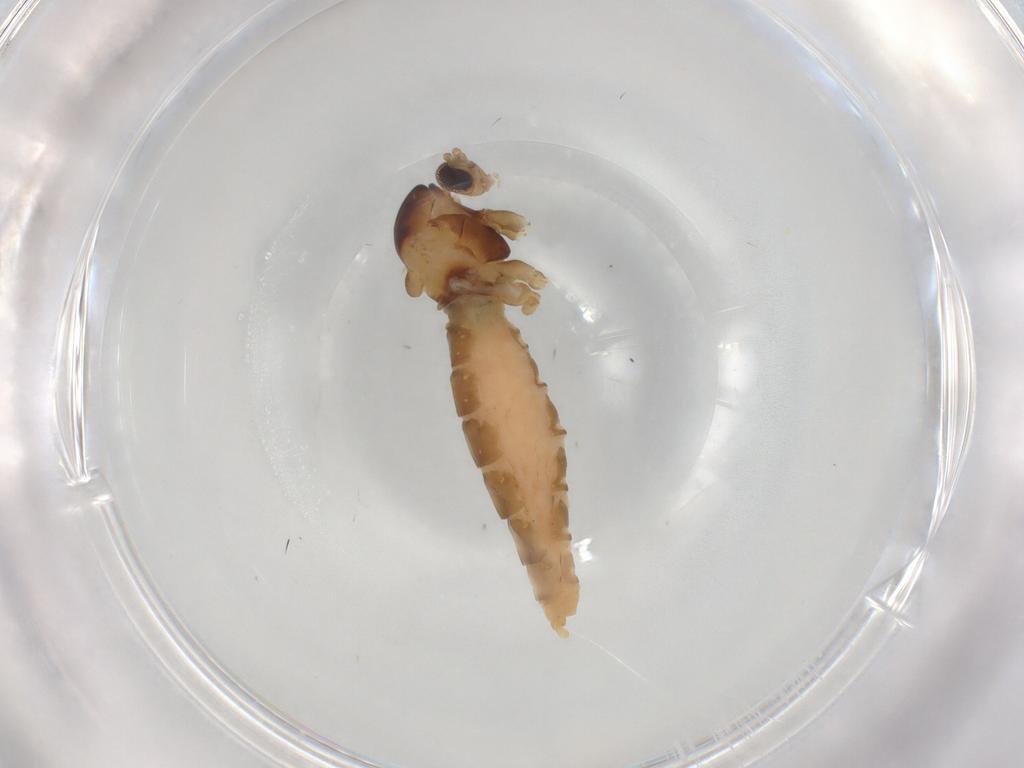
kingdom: Animalia
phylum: Arthropoda
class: Insecta
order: Diptera
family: Cecidomyiidae
